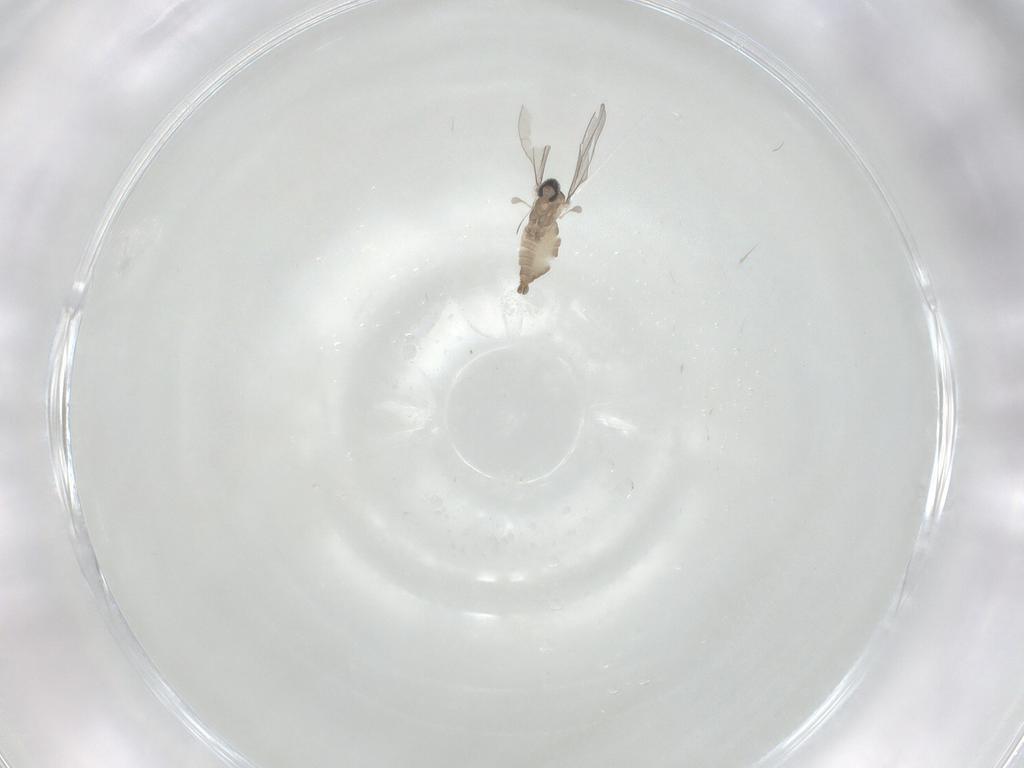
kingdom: Animalia
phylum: Arthropoda
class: Insecta
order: Diptera
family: Cecidomyiidae
